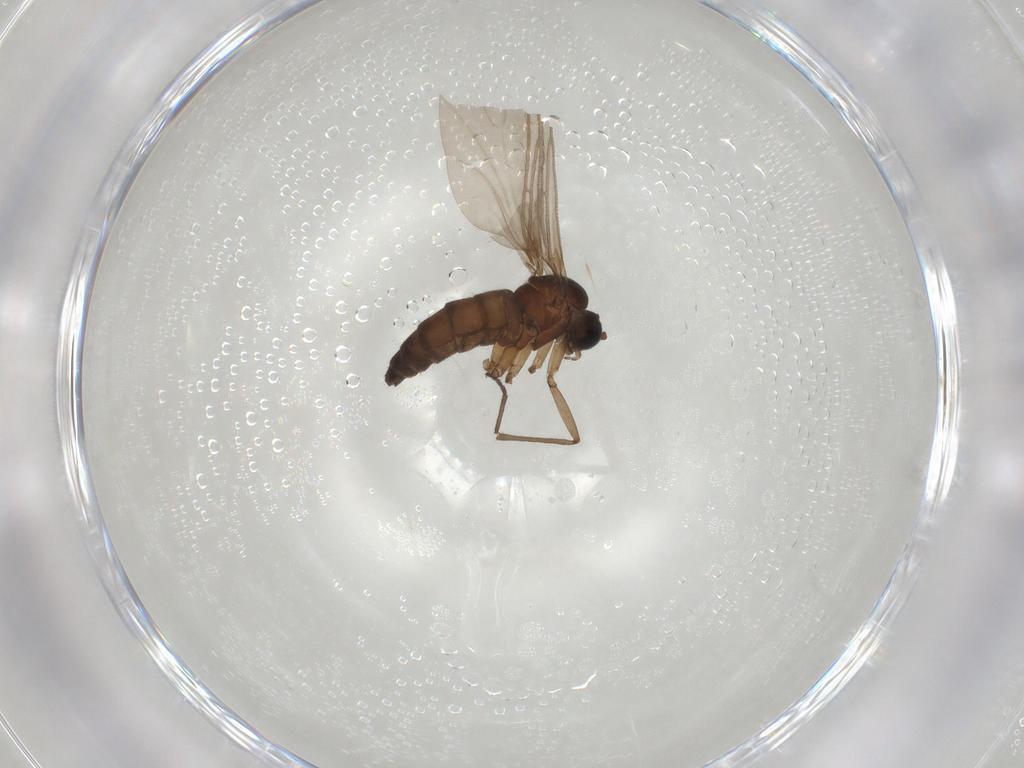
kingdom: Animalia
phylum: Arthropoda
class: Insecta
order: Diptera
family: Sciaridae
